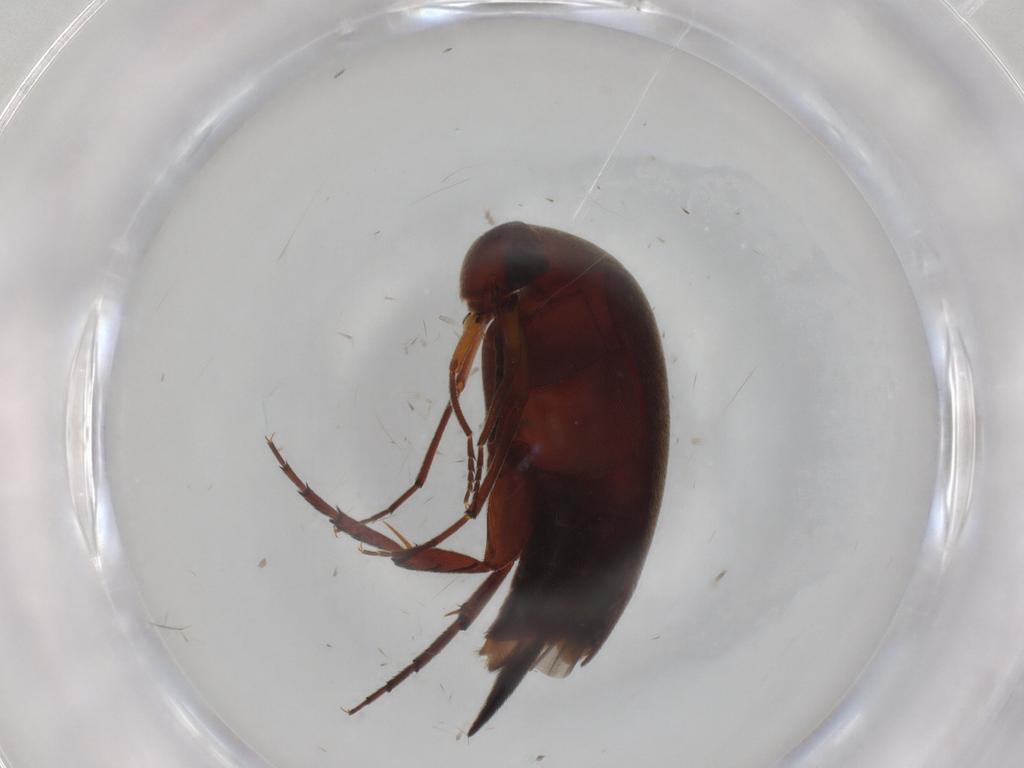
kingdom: Animalia
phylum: Arthropoda
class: Insecta
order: Coleoptera
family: Mordellidae
